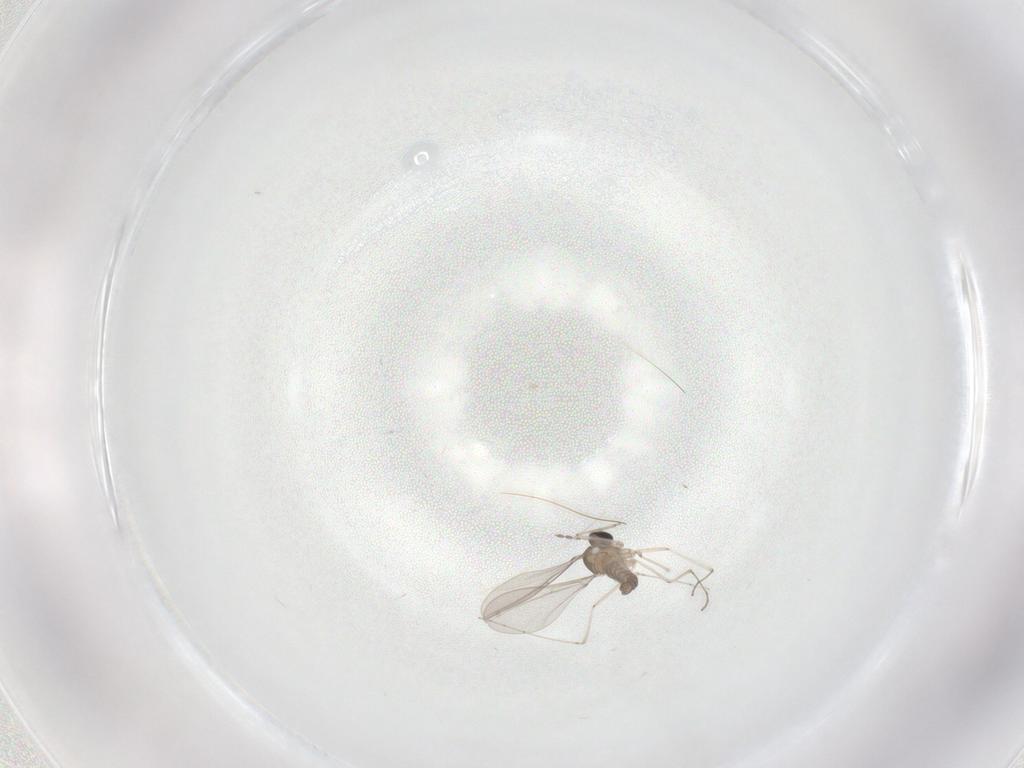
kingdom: Animalia
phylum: Arthropoda
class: Insecta
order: Diptera
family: Cecidomyiidae
